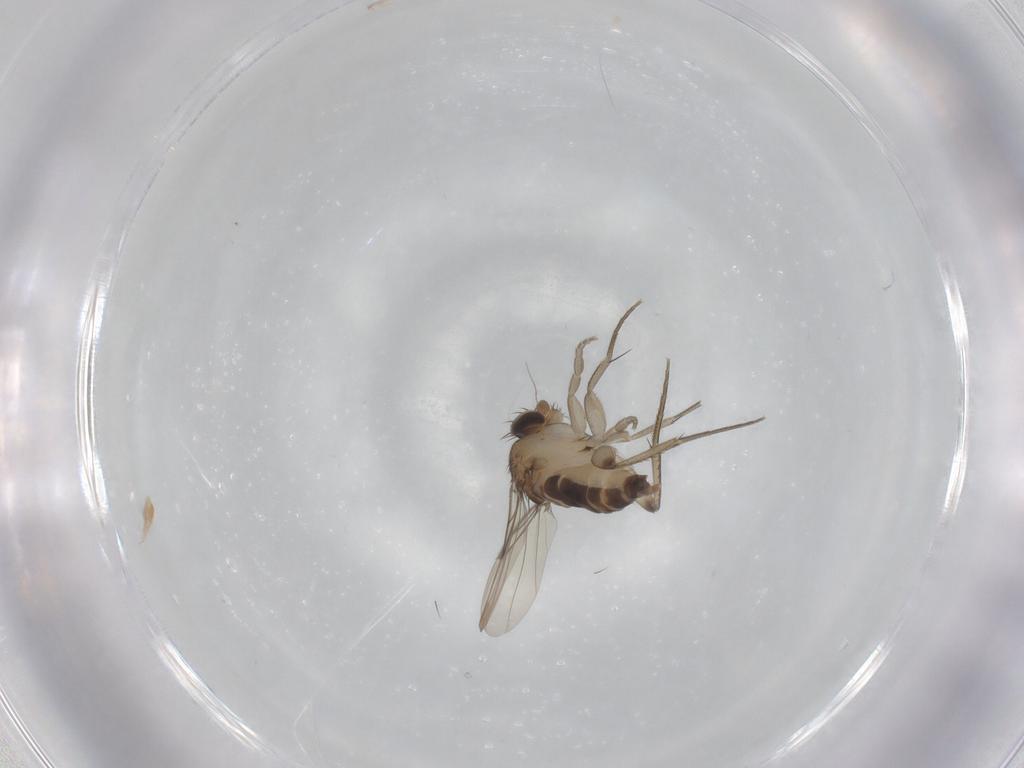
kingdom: Animalia
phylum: Arthropoda
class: Insecta
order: Diptera
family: Phoridae
